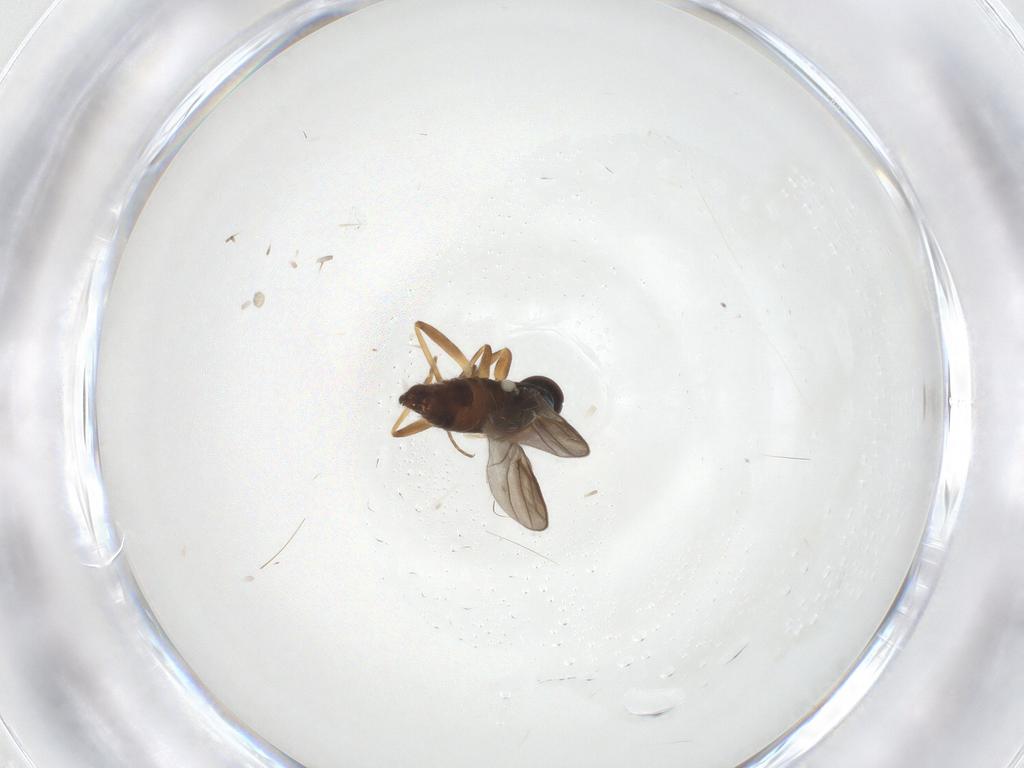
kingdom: Animalia
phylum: Arthropoda
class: Insecta
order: Diptera
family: Hybotidae
